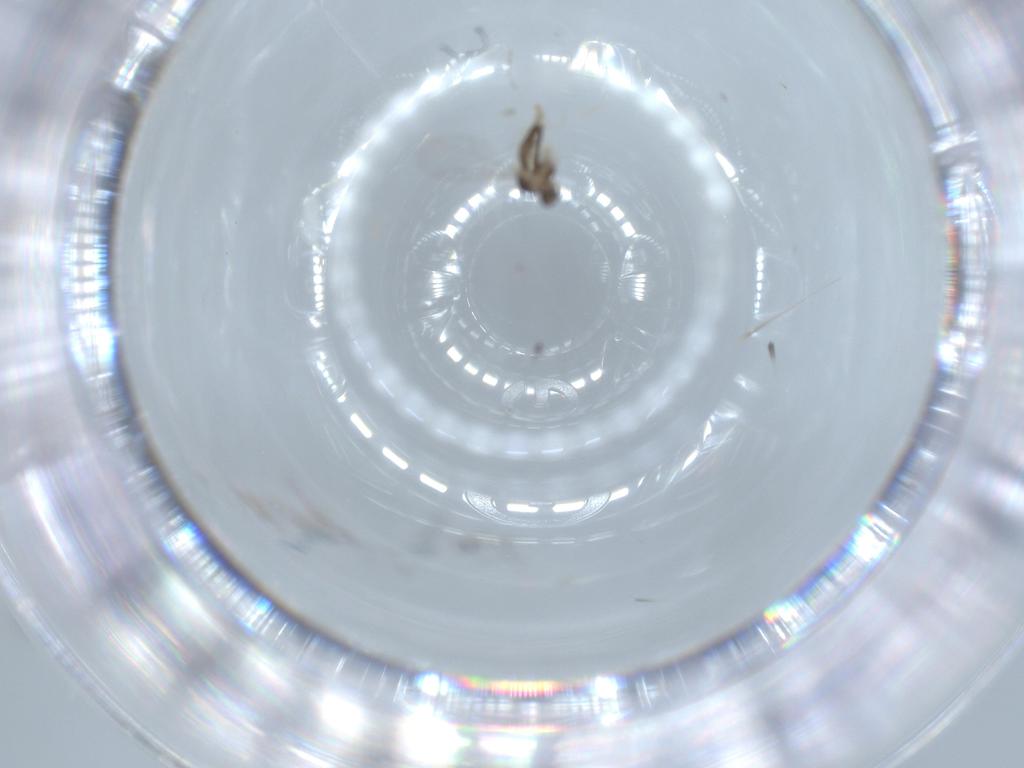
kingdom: Animalia
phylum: Arthropoda
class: Insecta
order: Diptera
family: Cecidomyiidae
